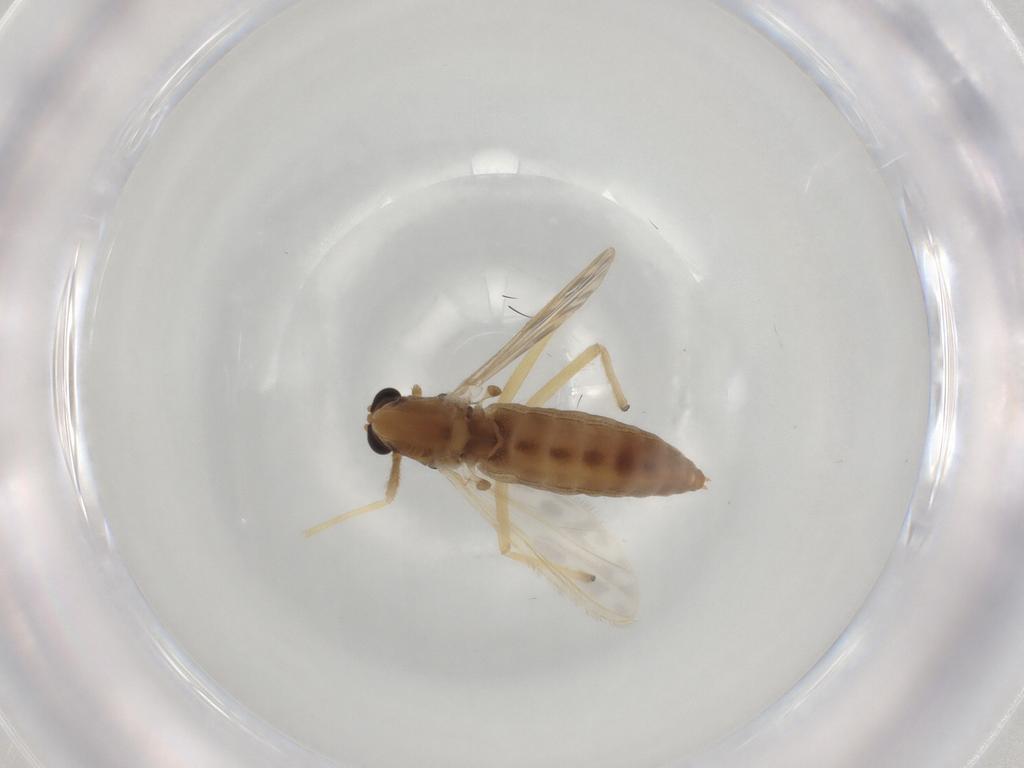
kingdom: Animalia
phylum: Arthropoda
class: Insecta
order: Diptera
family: Chironomidae
